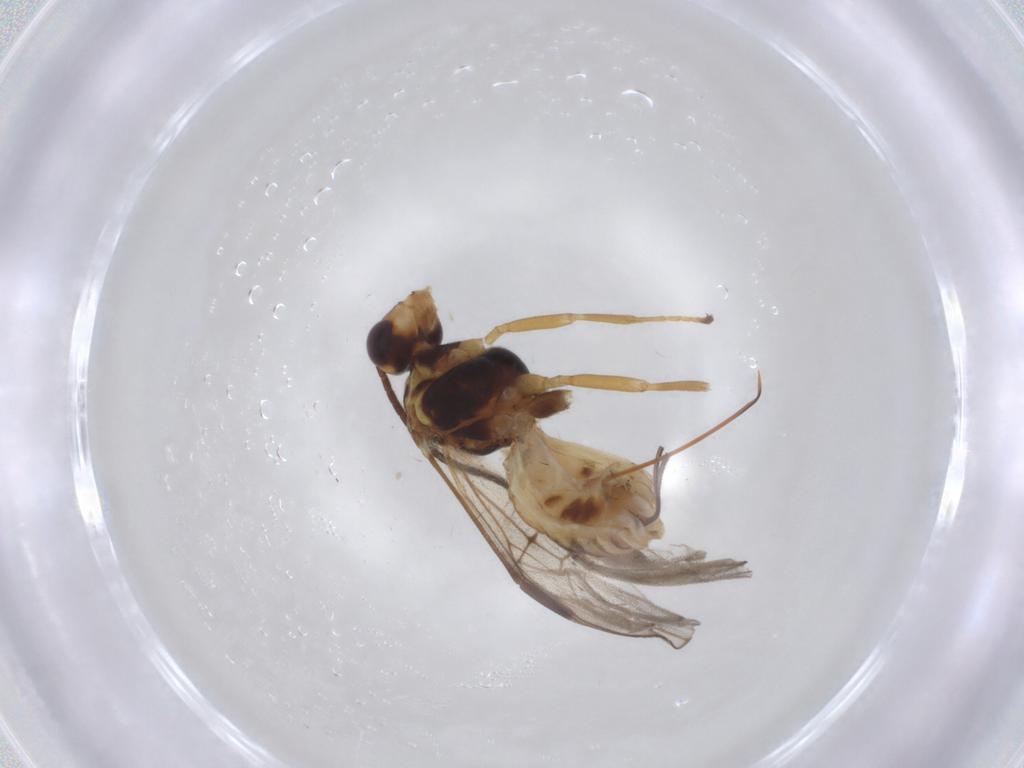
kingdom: Animalia
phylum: Arthropoda
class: Insecta
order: Hymenoptera
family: Braconidae
